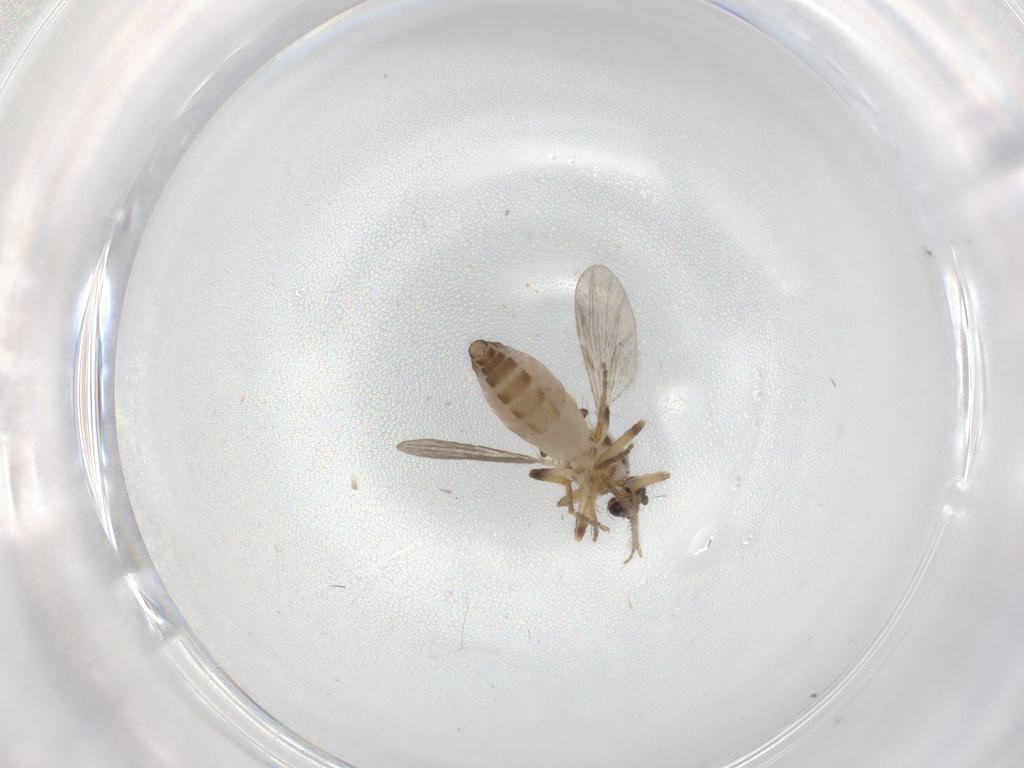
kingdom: Animalia
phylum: Arthropoda
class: Insecta
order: Diptera
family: Ceratopogonidae
